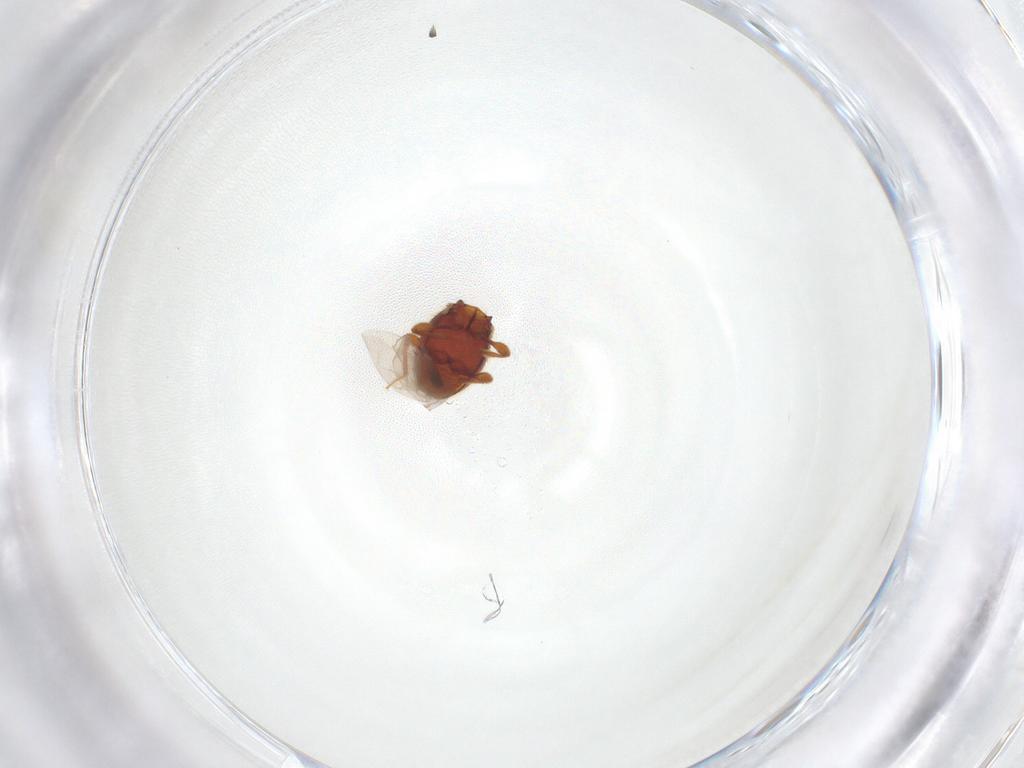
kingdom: Animalia
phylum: Arthropoda
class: Insecta
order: Coleoptera
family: Staphylinidae
